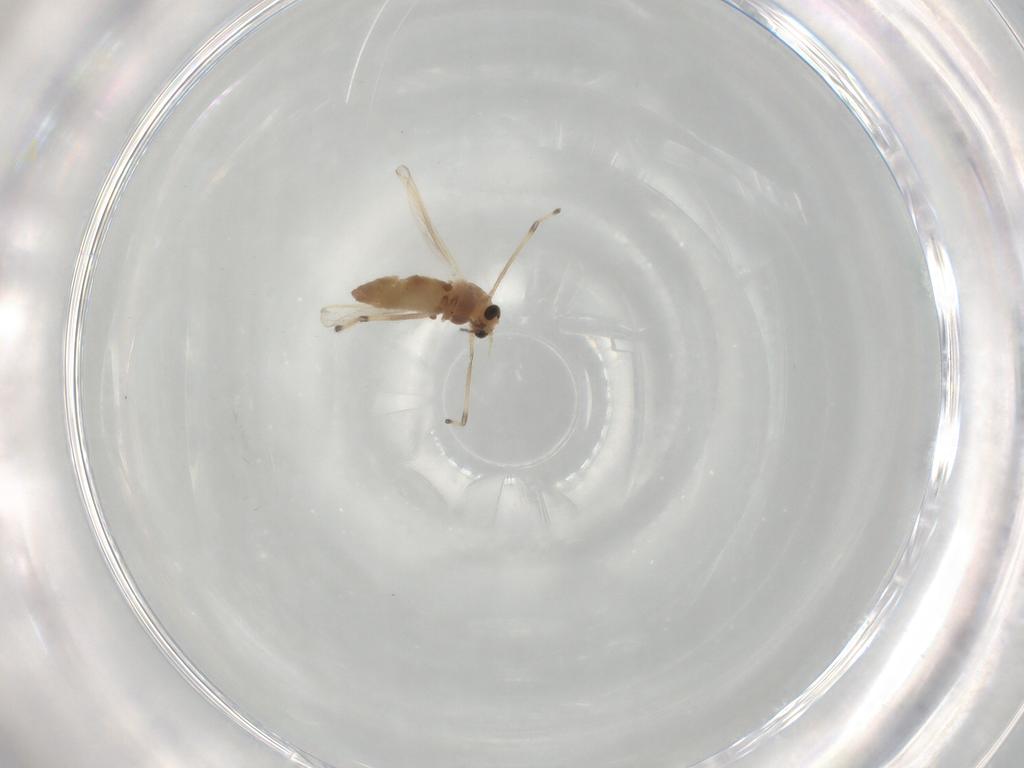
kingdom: Animalia
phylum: Arthropoda
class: Insecta
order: Diptera
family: Chironomidae
